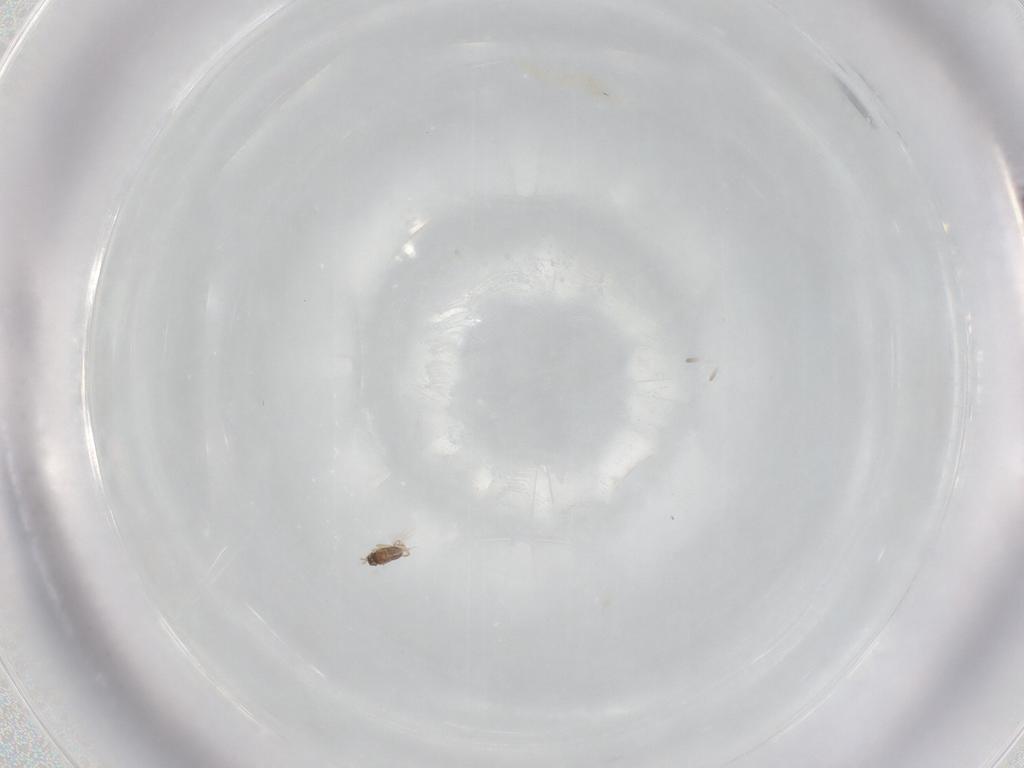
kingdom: Animalia
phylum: Arthropoda
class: Insecta
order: Hymenoptera
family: Mymaridae
